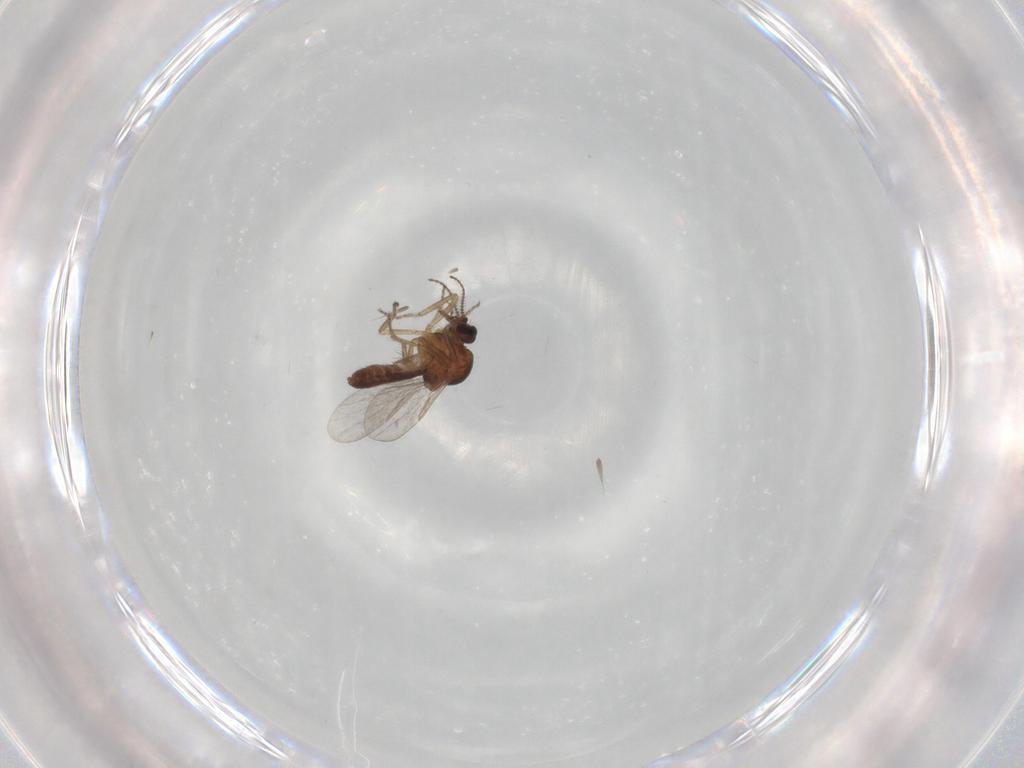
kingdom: Animalia
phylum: Arthropoda
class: Insecta
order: Diptera
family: Ceratopogonidae
